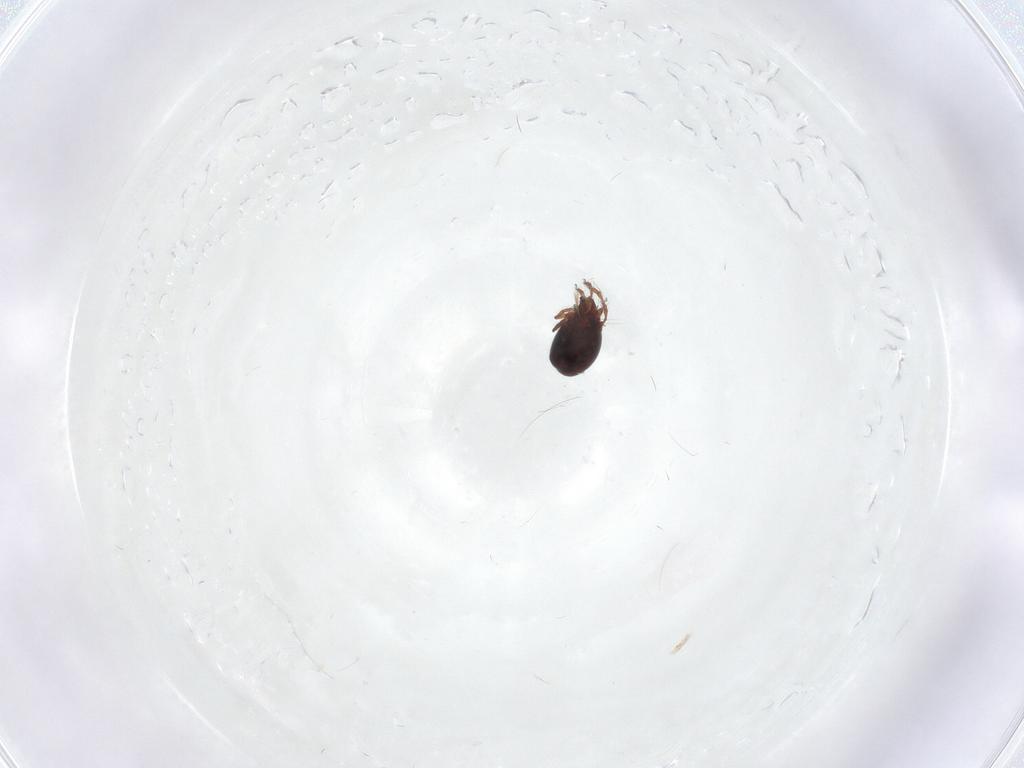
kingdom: Animalia
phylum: Arthropoda
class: Arachnida
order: Sarcoptiformes
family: Ceratozetidae
